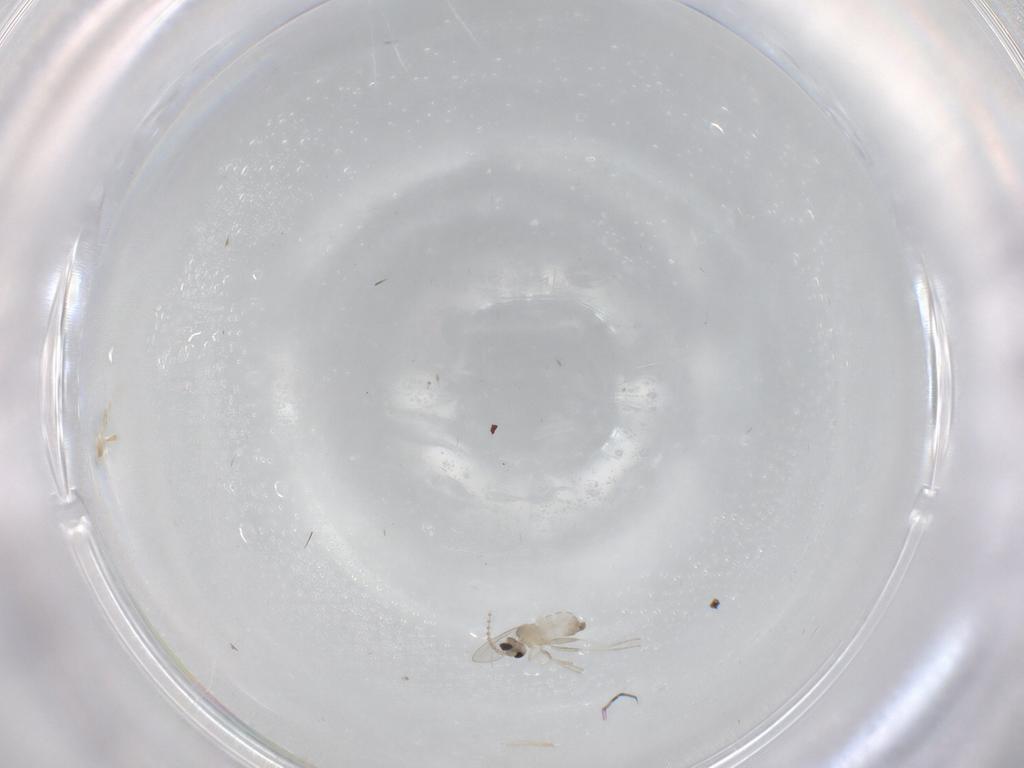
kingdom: Animalia
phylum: Arthropoda
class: Insecta
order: Diptera
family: Cecidomyiidae
